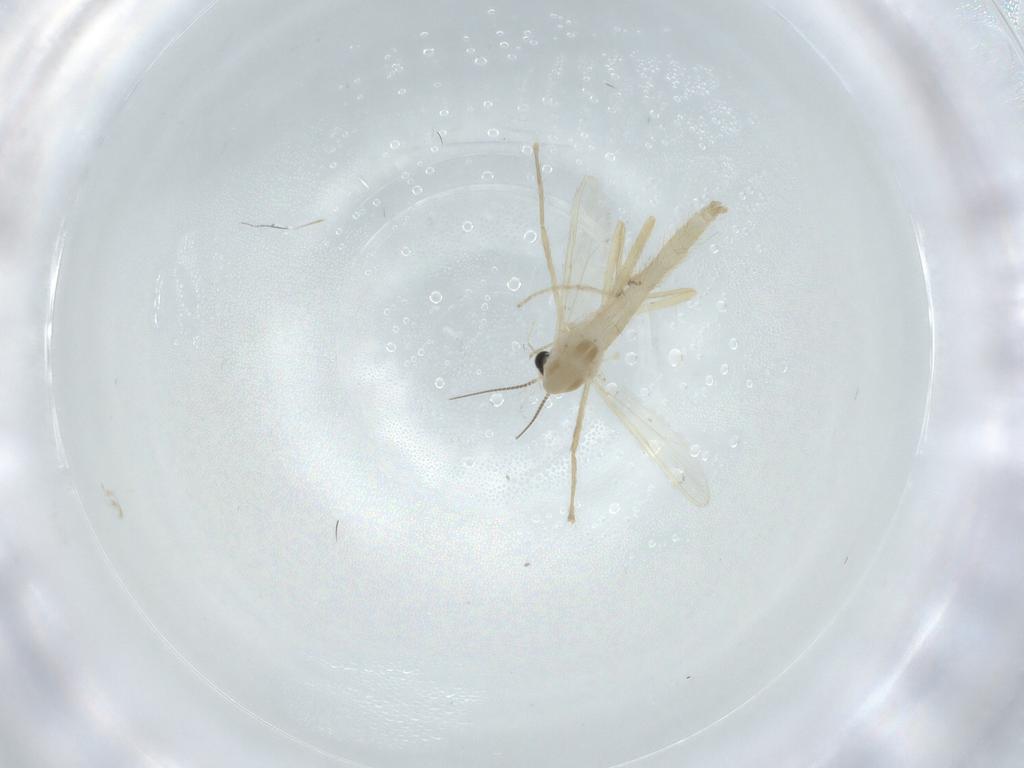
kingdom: Animalia
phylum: Arthropoda
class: Insecta
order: Diptera
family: Chironomidae
